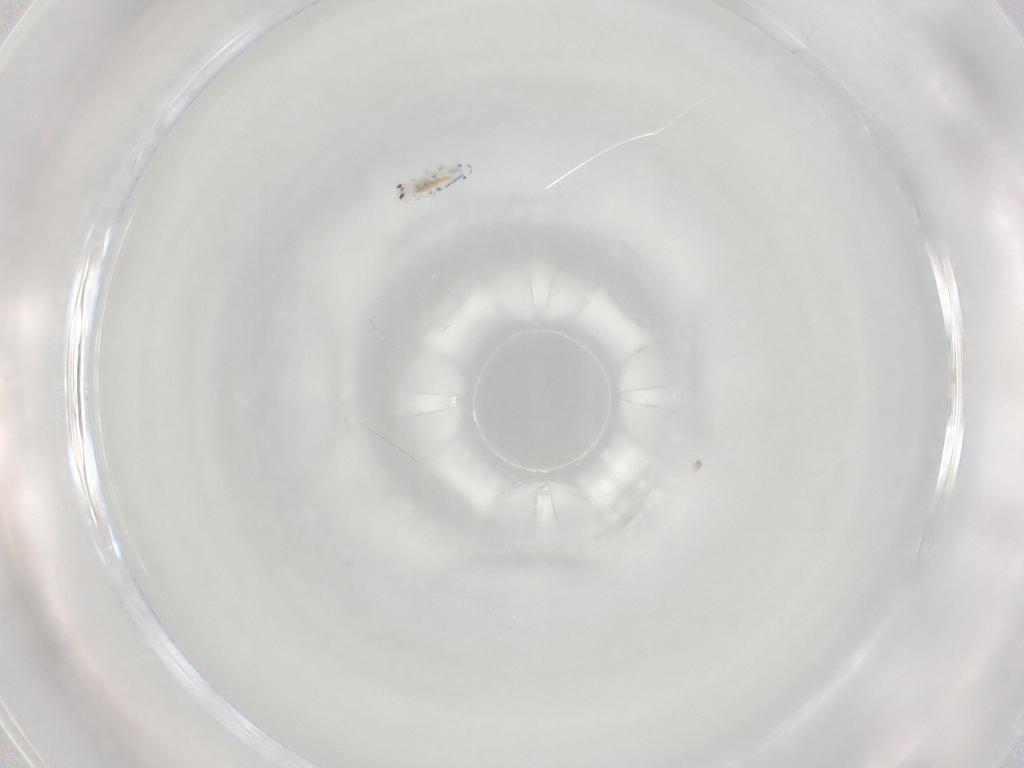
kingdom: Animalia
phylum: Arthropoda
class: Collembola
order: Entomobryomorpha
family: Entomobryidae
